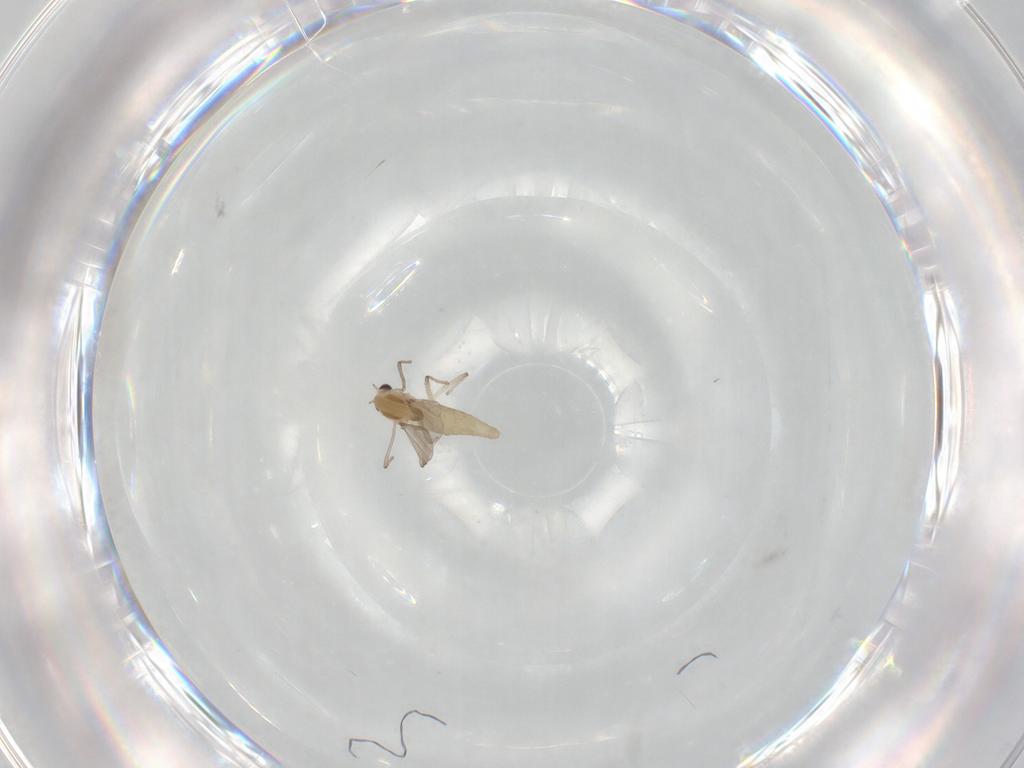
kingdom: Animalia
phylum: Arthropoda
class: Insecta
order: Diptera
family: Chironomidae
